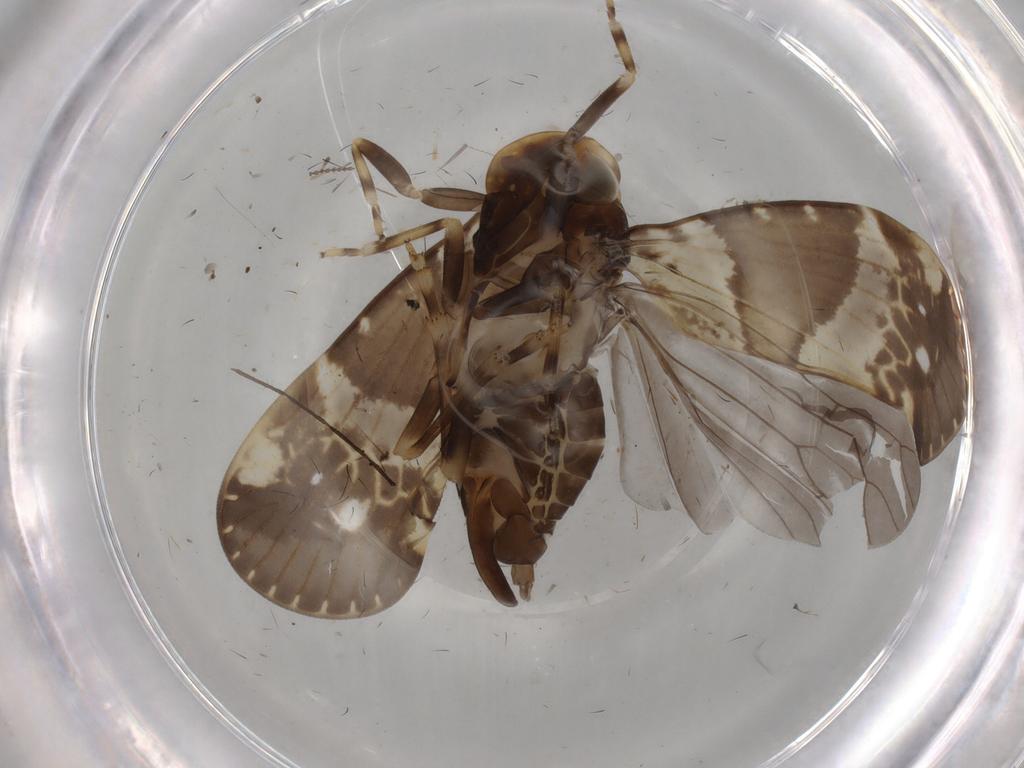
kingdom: Animalia
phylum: Arthropoda
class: Insecta
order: Hemiptera
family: Cixiidae
